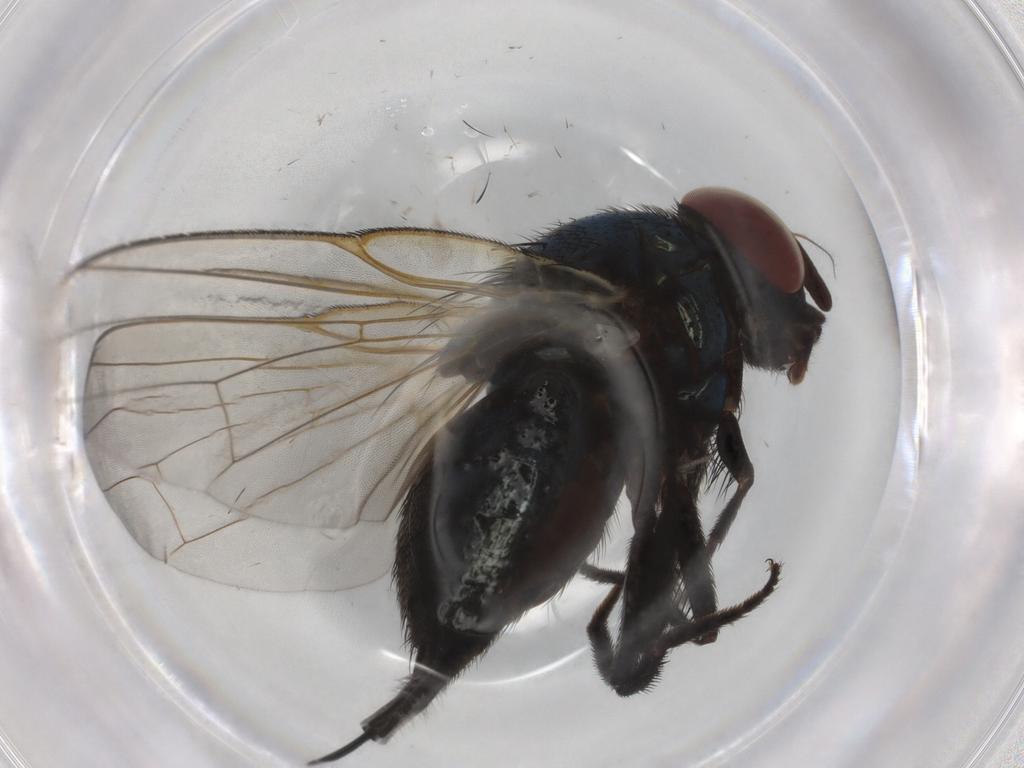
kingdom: Animalia
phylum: Arthropoda
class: Insecta
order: Diptera
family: Lonchaeidae
